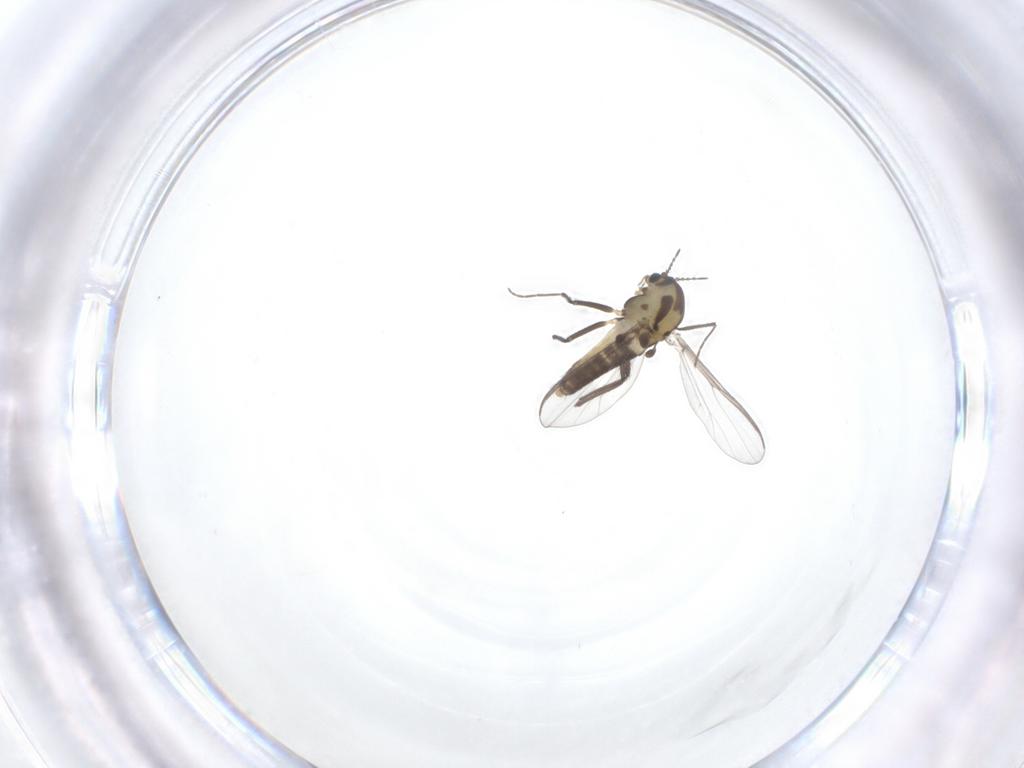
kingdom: Animalia
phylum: Arthropoda
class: Insecta
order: Diptera
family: Chironomidae
